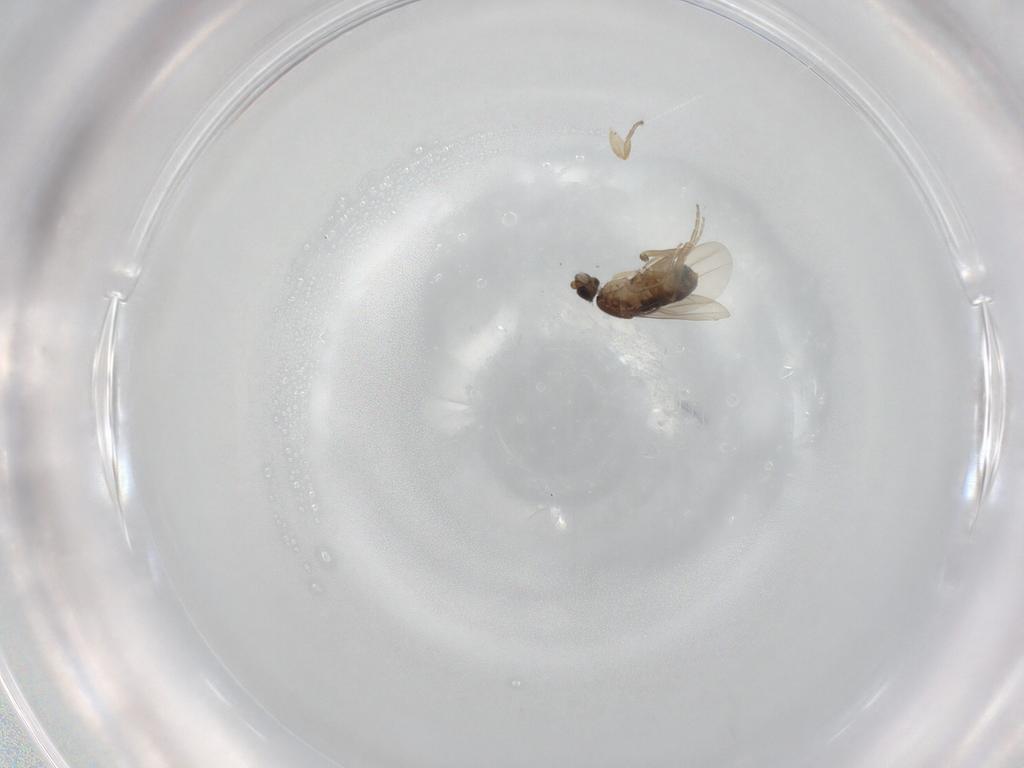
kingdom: Animalia
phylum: Arthropoda
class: Insecta
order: Diptera
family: Phoridae
